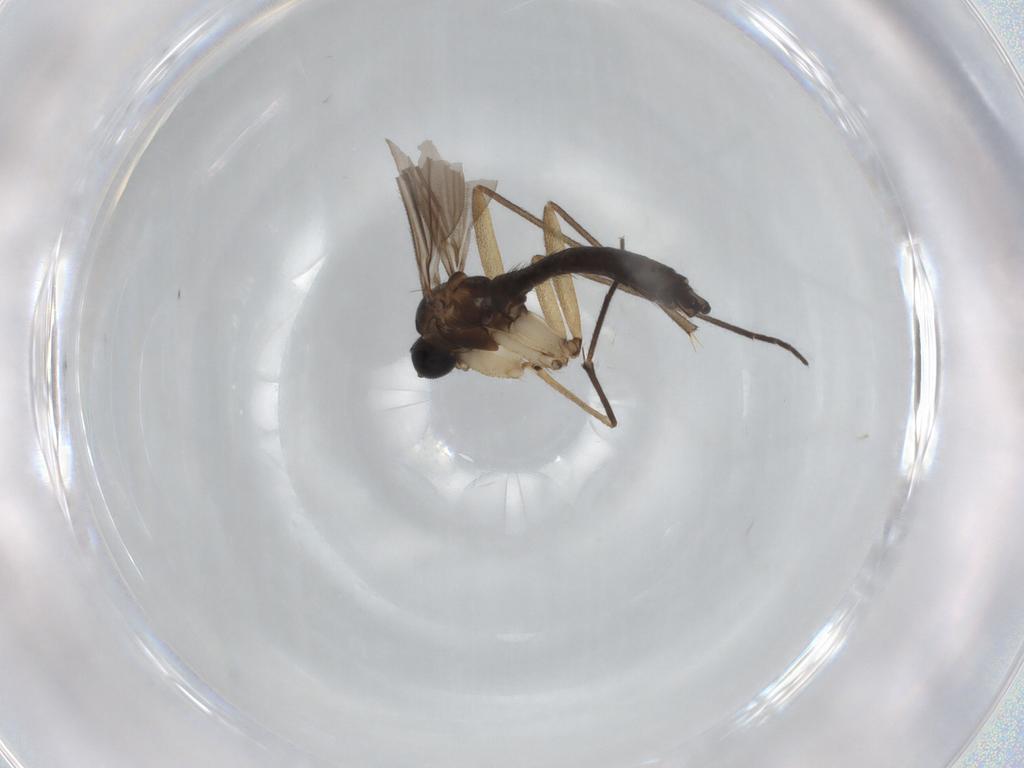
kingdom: Animalia
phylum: Arthropoda
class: Insecta
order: Diptera
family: Sciaridae
